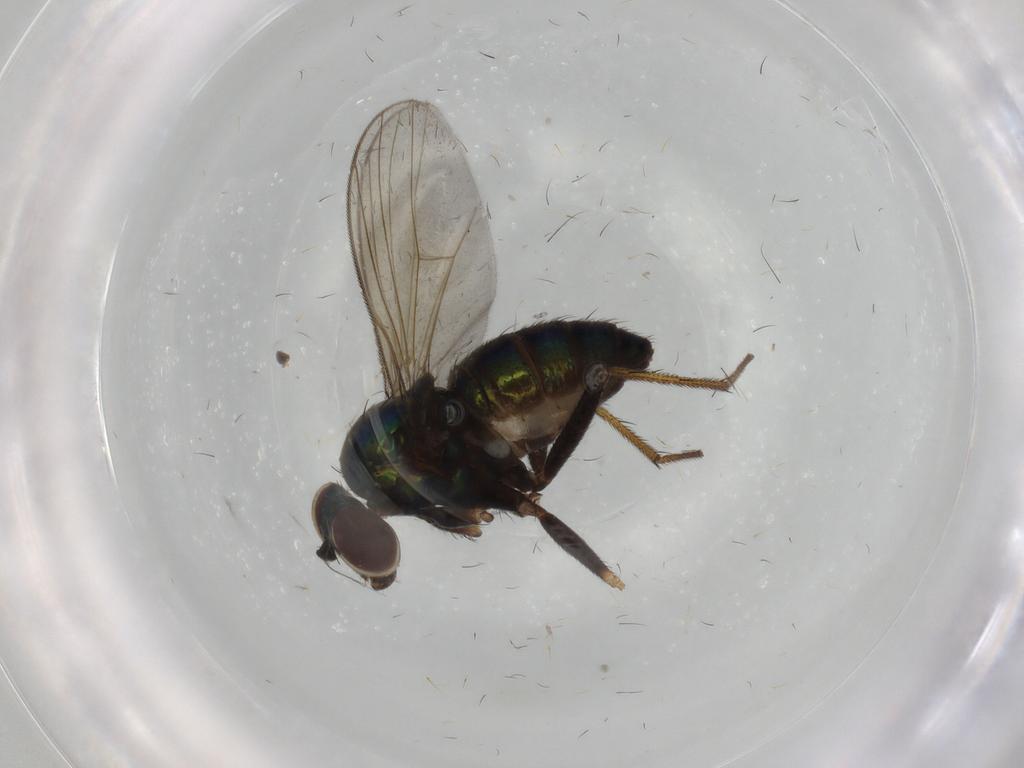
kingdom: Animalia
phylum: Arthropoda
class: Insecta
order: Diptera
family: Dolichopodidae
